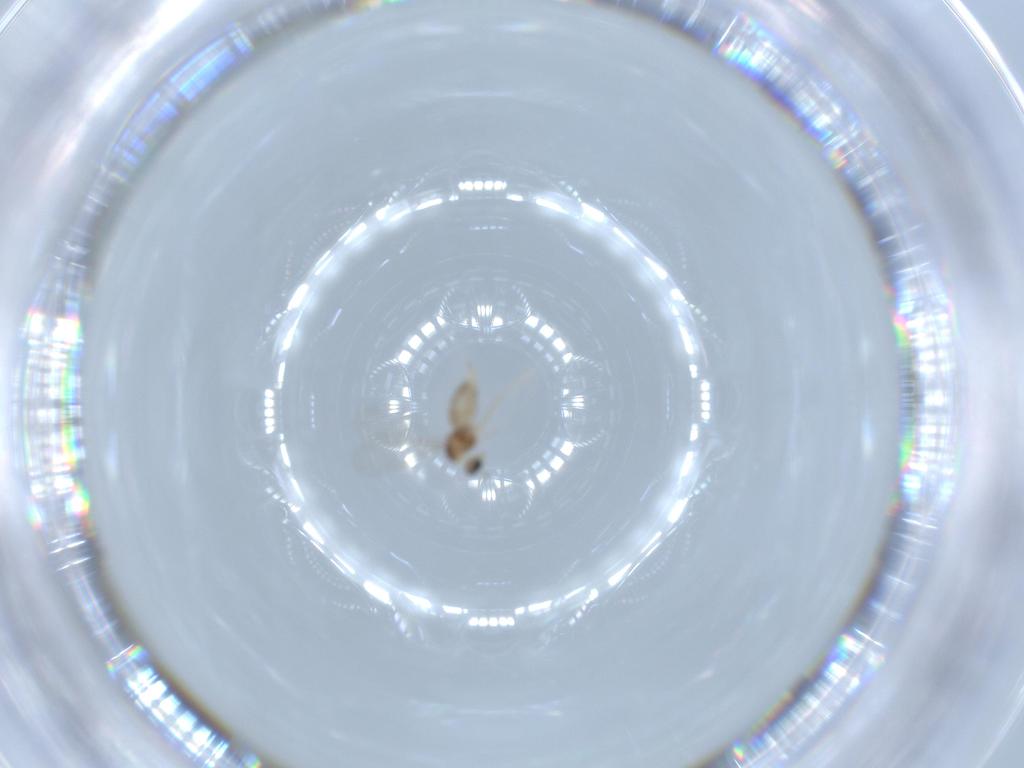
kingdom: Animalia
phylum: Arthropoda
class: Insecta
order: Diptera
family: Cecidomyiidae
